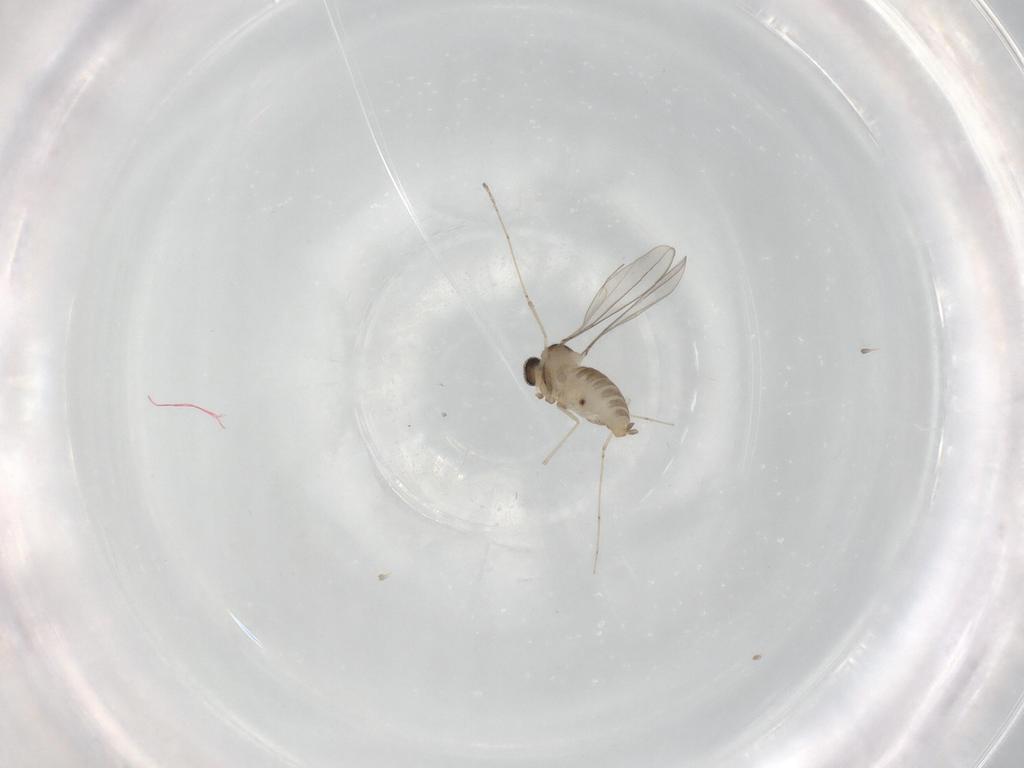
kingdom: Animalia
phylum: Arthropoda
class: Insecta
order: Diptera
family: Cecidomyiidae
